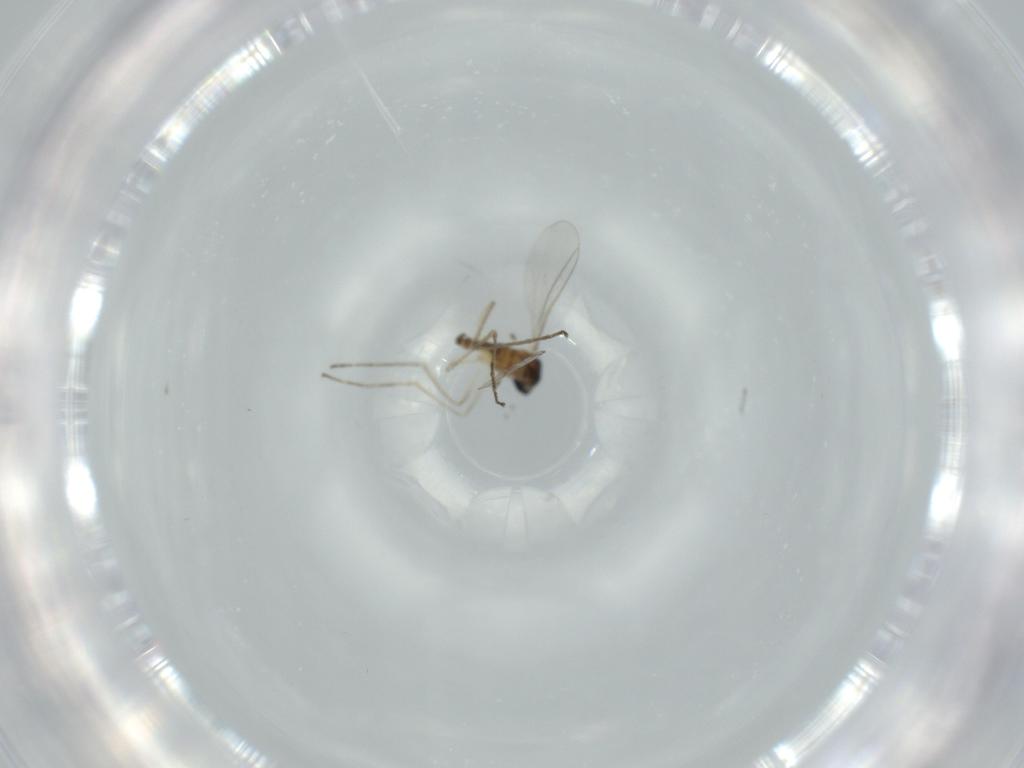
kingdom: Animalia
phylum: Arthropoda
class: Insecta
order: Diptera
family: Cecidomyiidae
